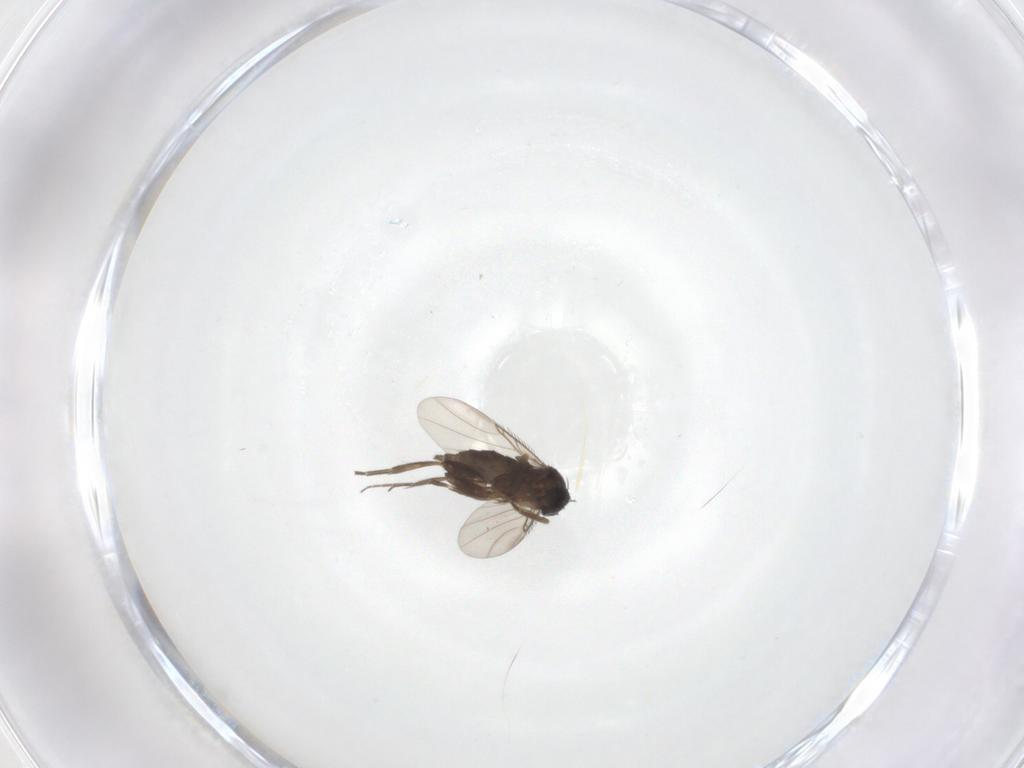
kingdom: Animalia
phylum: Arthropoda
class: Insecta
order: Diptera
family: Phoridae
